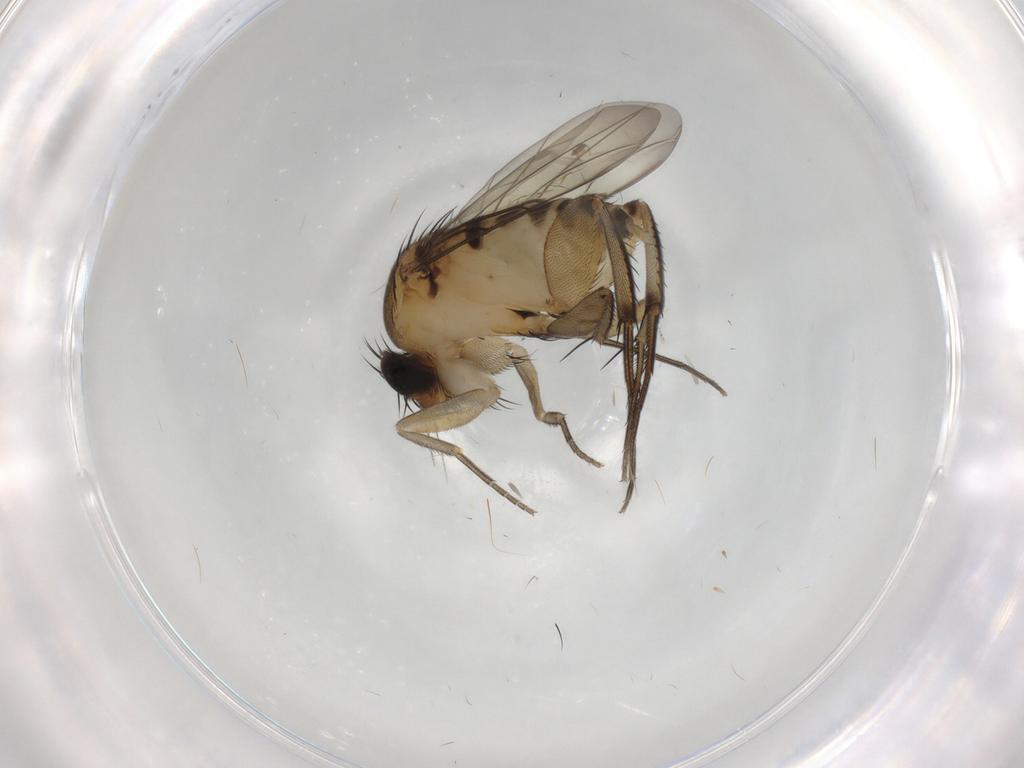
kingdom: Animalia
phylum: Arthropoda
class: Insecta
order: Diptera
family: Phoridae
